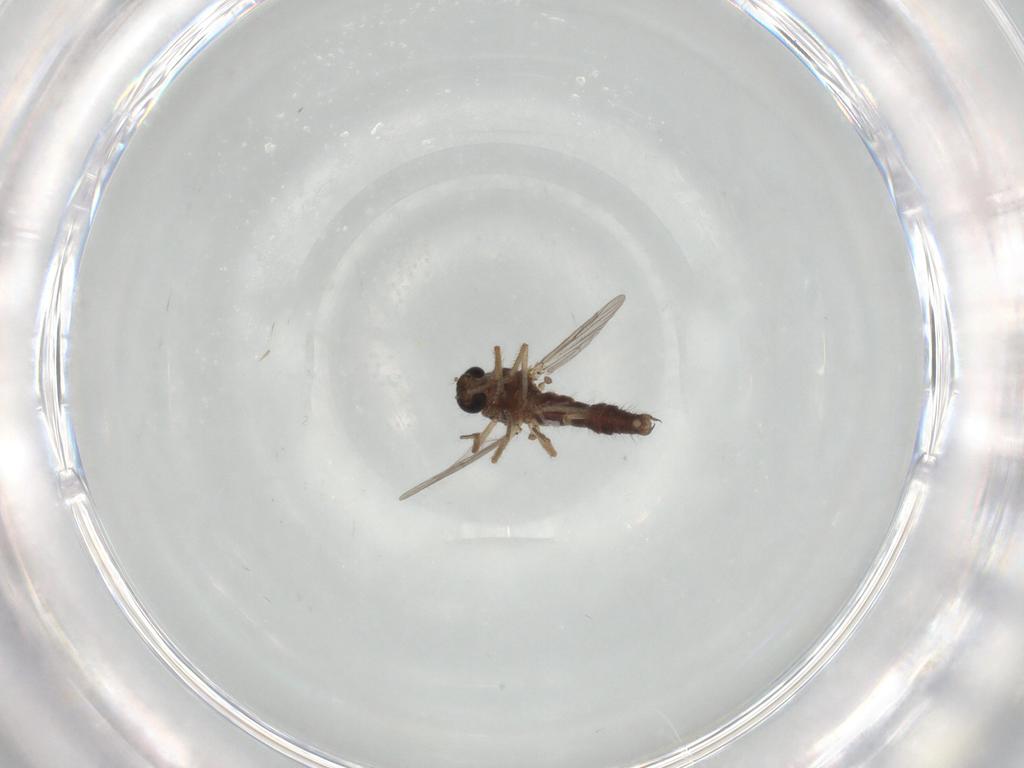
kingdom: Animalia
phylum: Arthropoda
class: Insecta
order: Diptera
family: Ceratopogonidae
